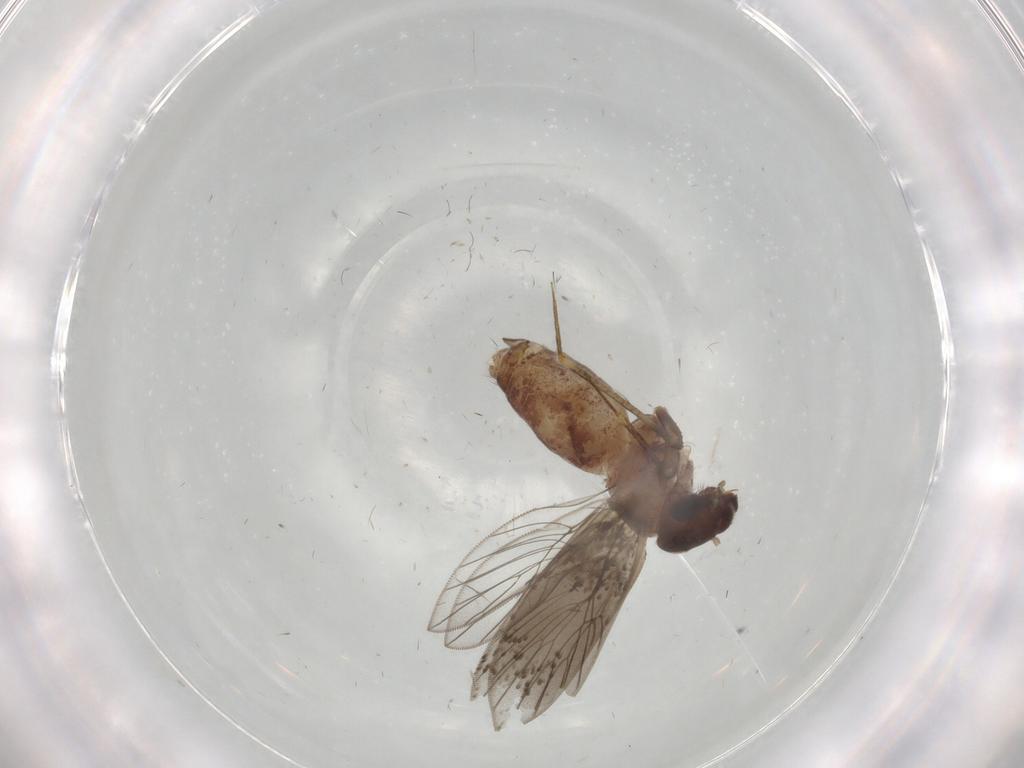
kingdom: Animalia
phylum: Arthropoda
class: Insecta
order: Psocodea
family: Lepidopsocidae
